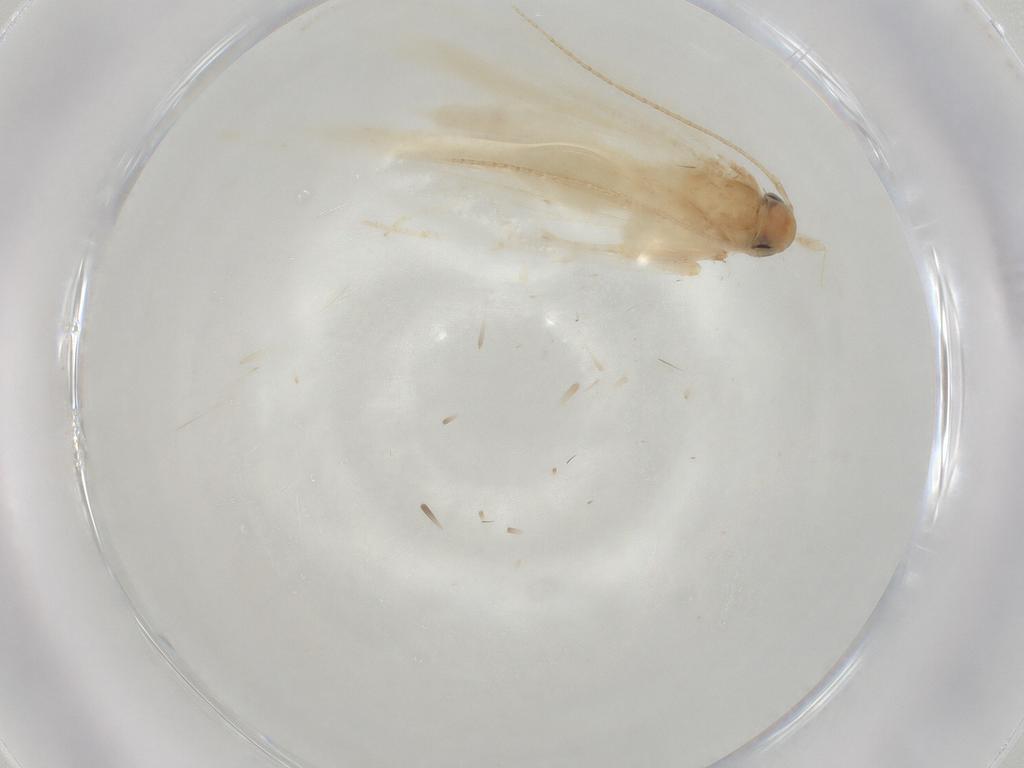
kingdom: Animalia
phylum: Arthropoda
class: Insecta
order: Lepidoptera
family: Gelechiidae
